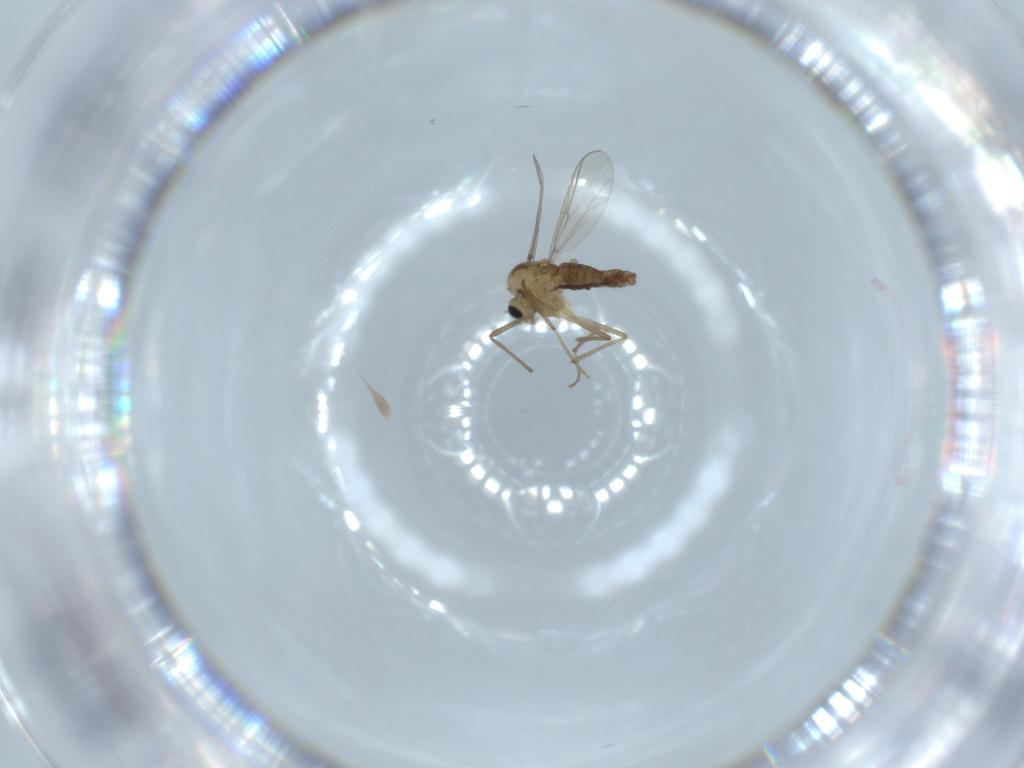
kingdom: Animalia
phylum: Arthropoda
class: Insecta
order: Diptera
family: Chironomidae
